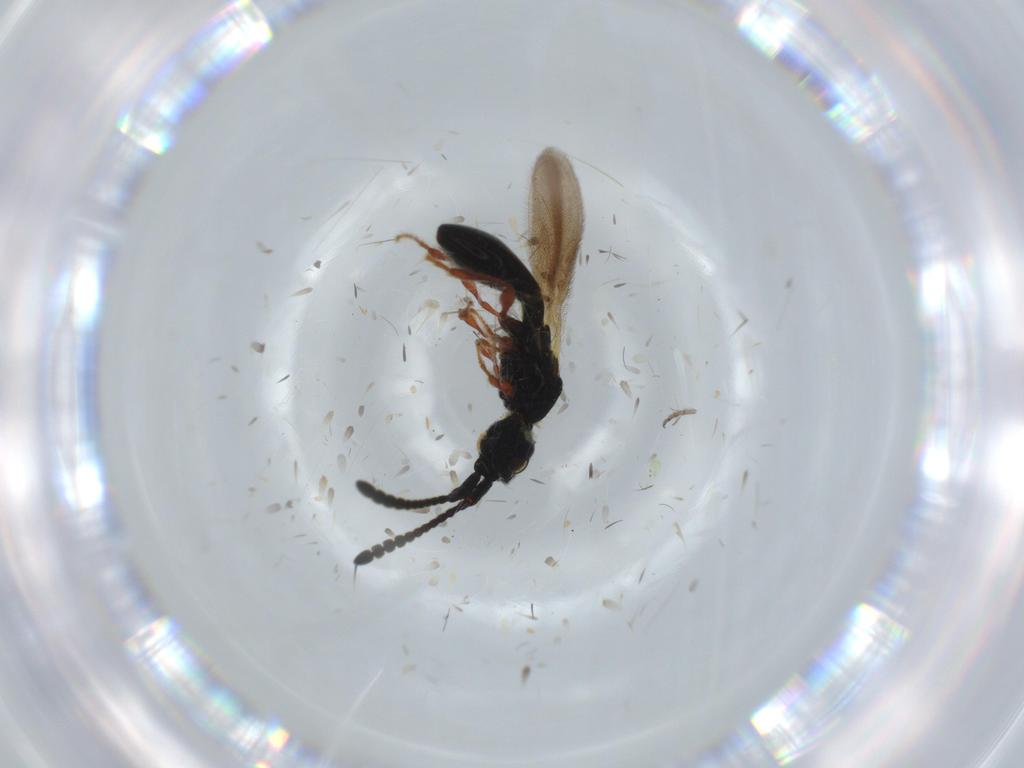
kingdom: Animalia
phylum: Arthropoda
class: Insecta
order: Hymenoptera
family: Diapriidae
